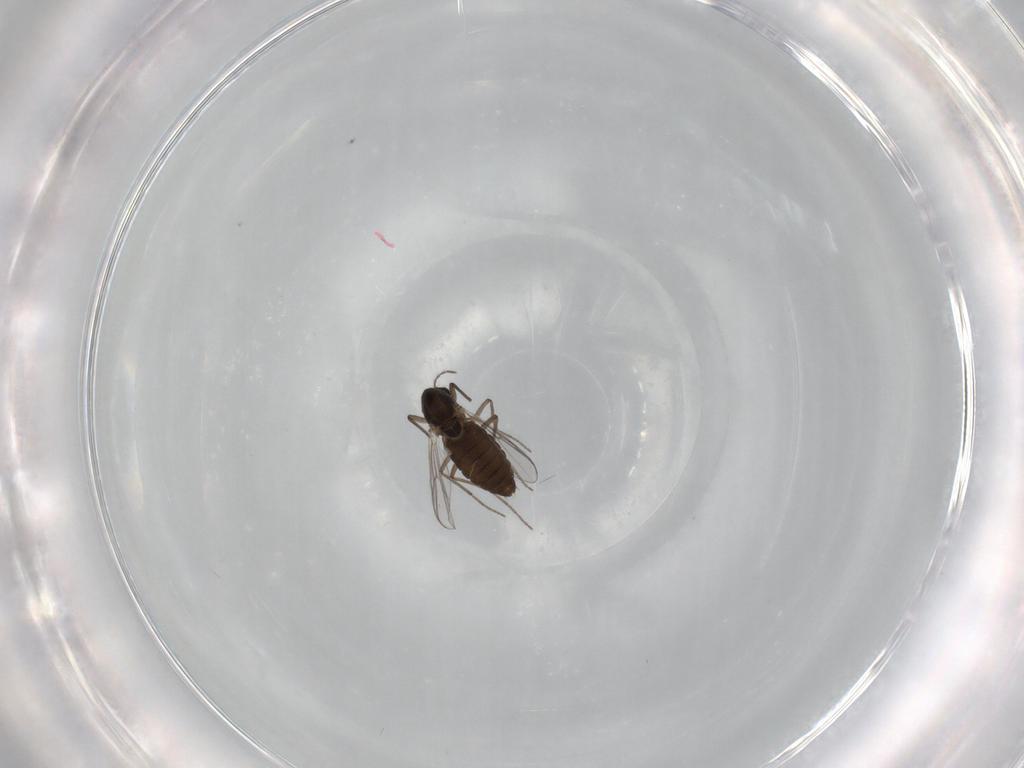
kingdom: Animalia
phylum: Arthropoda
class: Insecta
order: Diptera
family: Chironomidae
